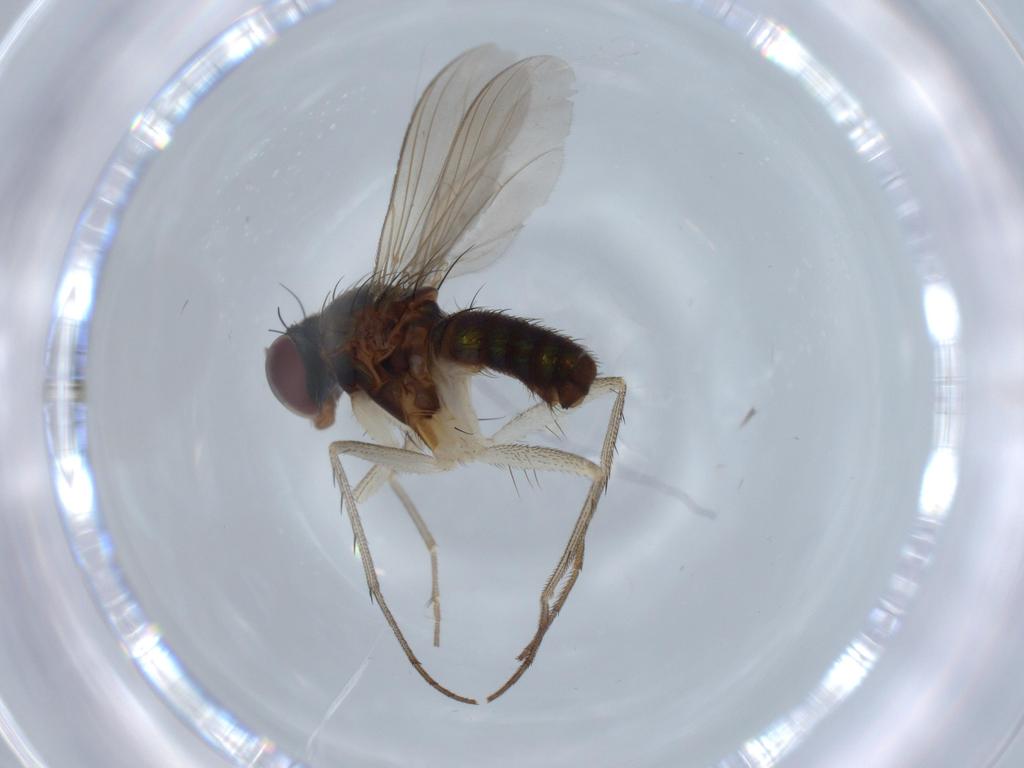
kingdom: Animalia
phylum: Arthropoda
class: Insecta
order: Diptera
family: Dolichopodidae
